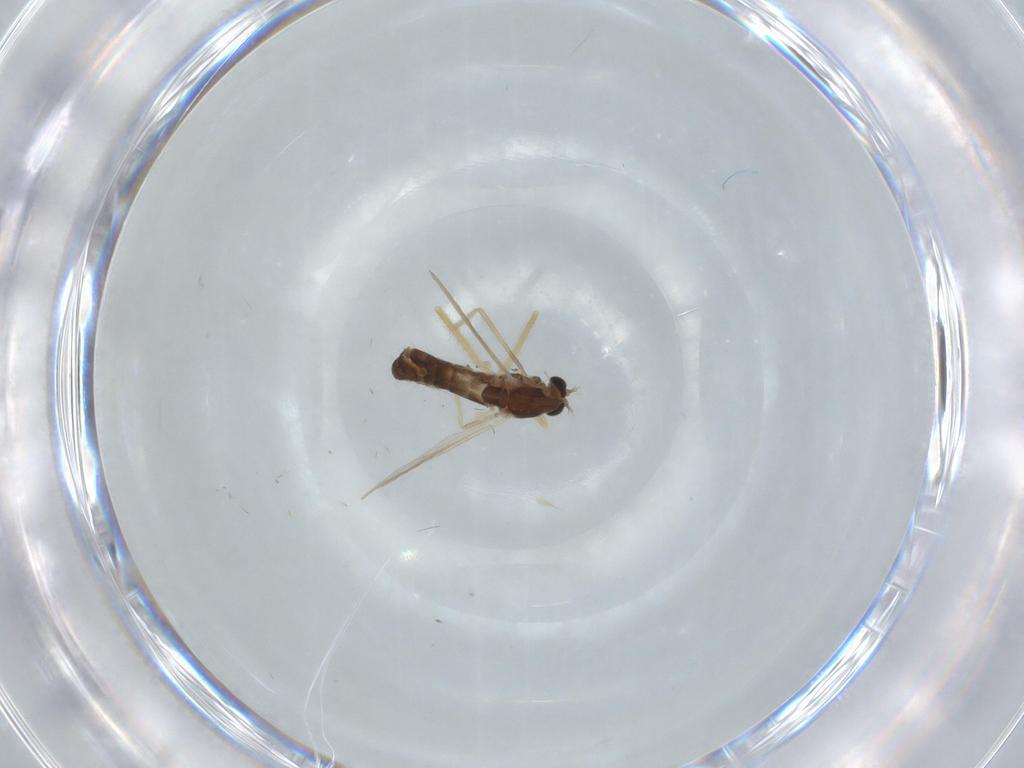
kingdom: Animalia
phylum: Arthropoda
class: Insecta
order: Diptera
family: Chironomidae
